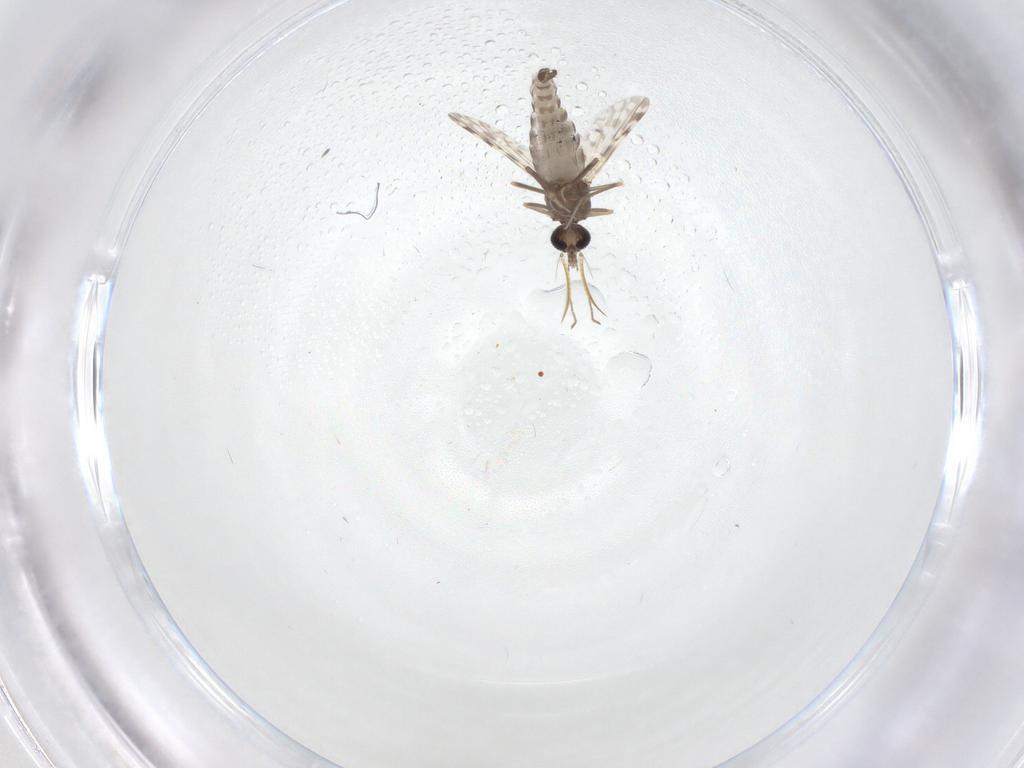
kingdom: Animalia
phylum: Arthropoda
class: Insecta
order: Diptera
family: Ceratopogonidae
